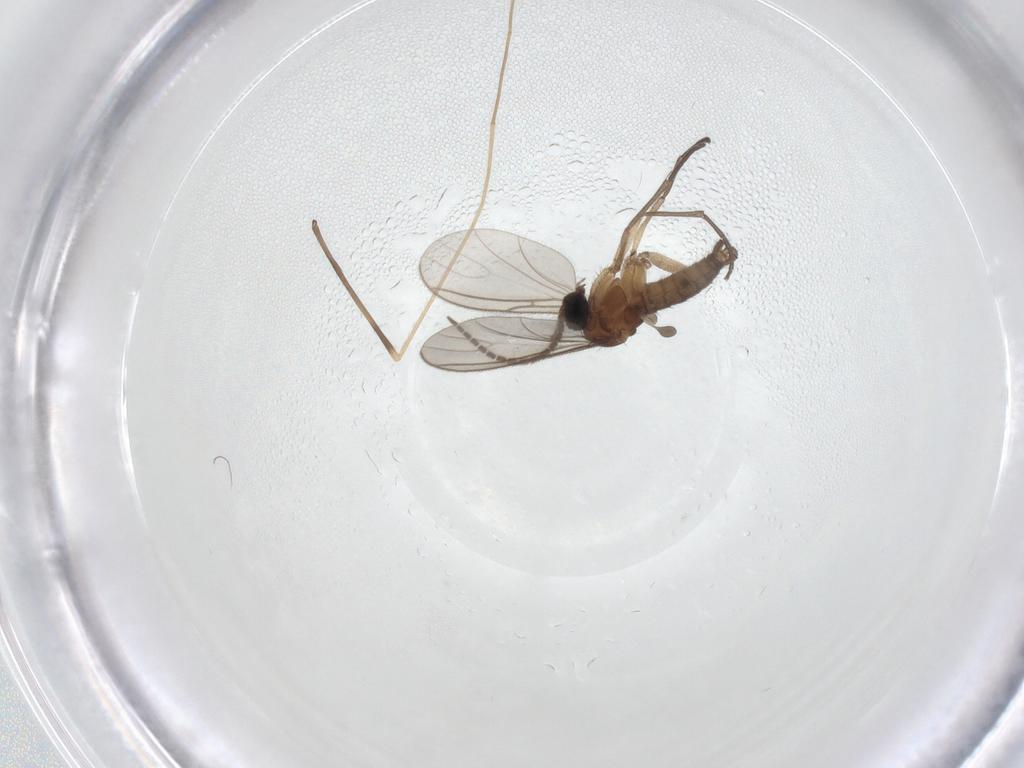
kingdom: Animalia
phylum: Arthropoda
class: Insecta
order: Diptera
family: Sciaridae
